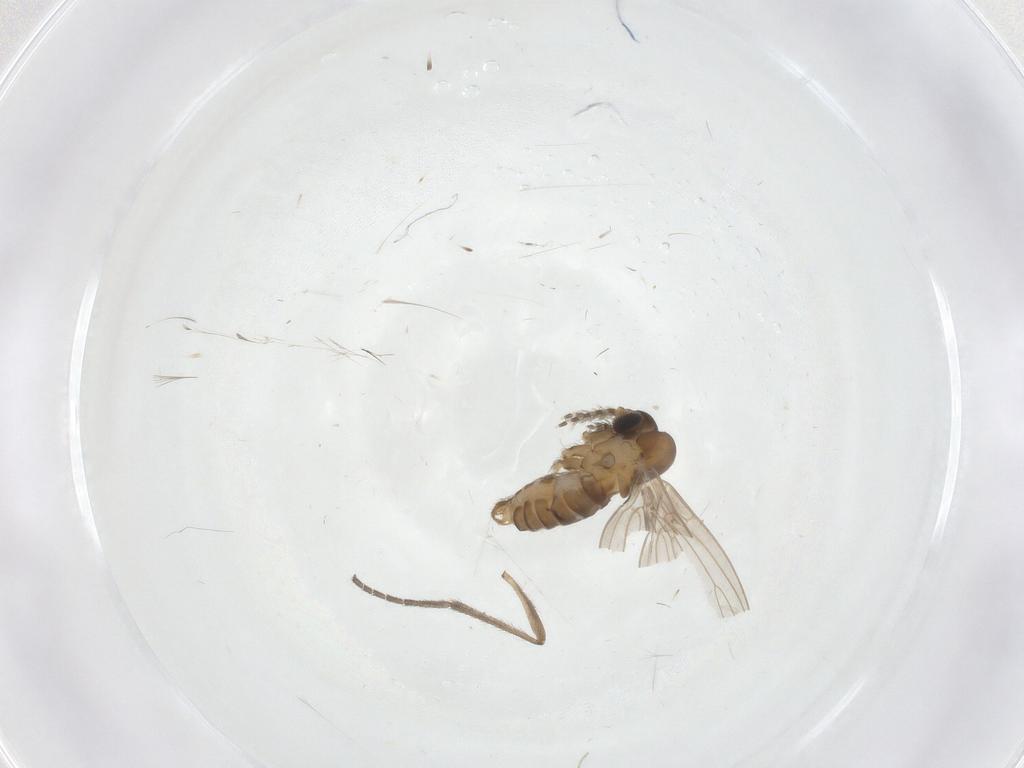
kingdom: Animalia
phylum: Arthropoda
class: Insecta
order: Diptera
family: Psychodidae
